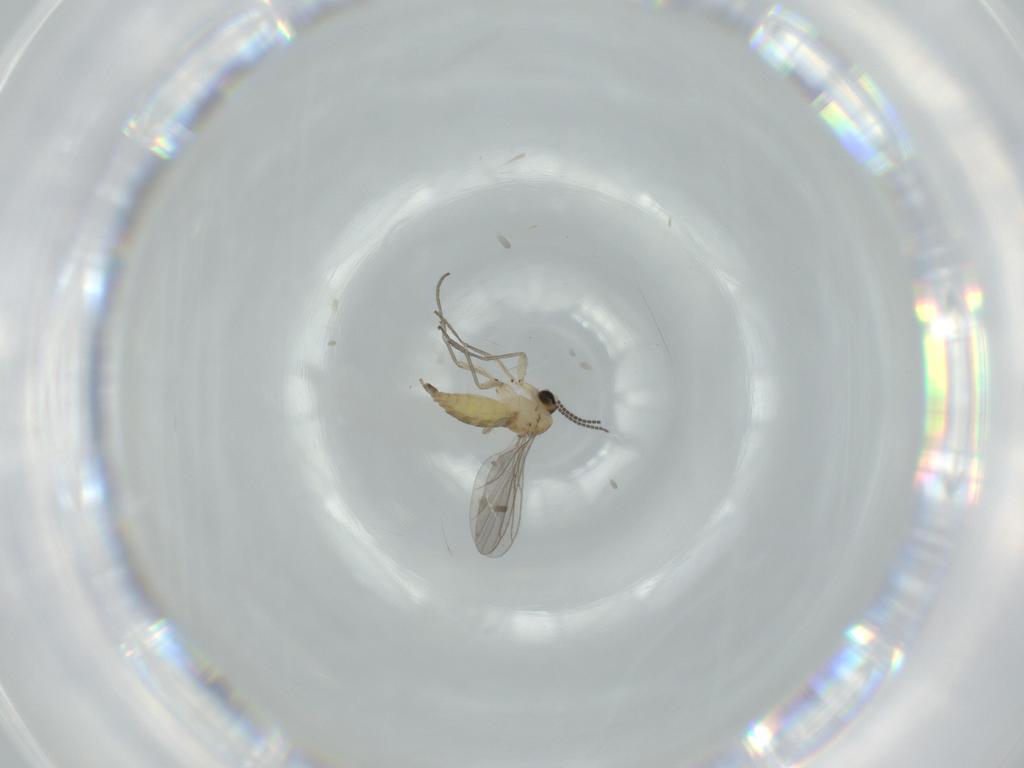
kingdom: Animalia
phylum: Arthropoda
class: Insecta
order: Diptera
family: Sciaridae
